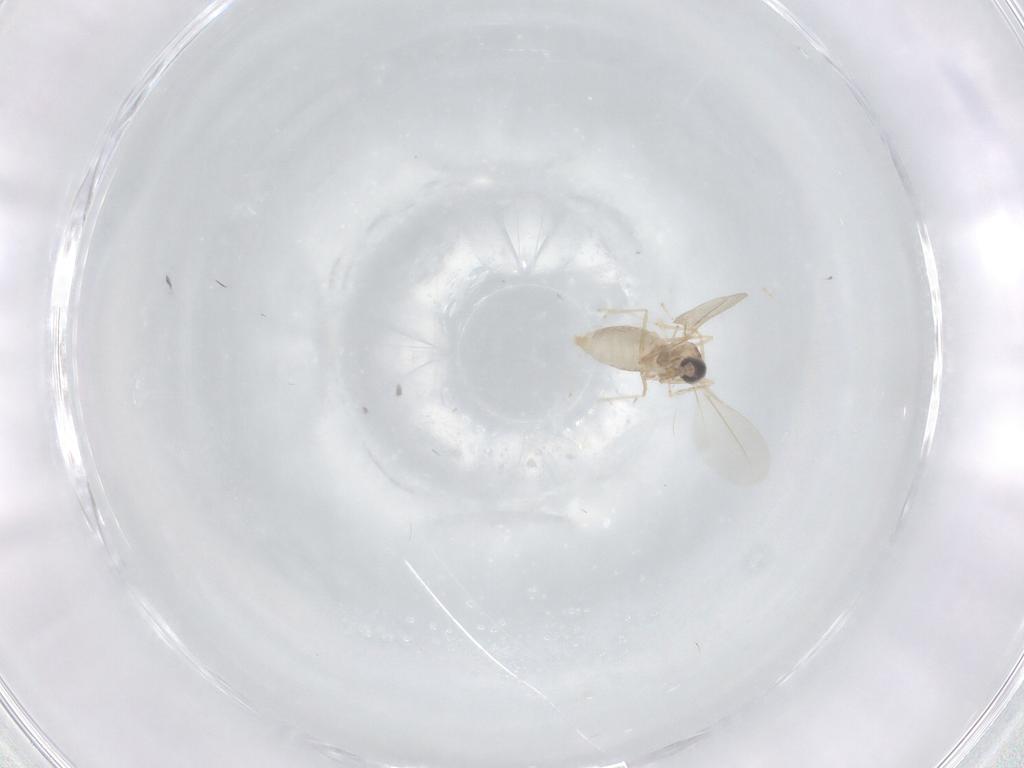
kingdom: Animalia
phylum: Arthropoda
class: Insecta
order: Diptera
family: Cecidomyiidae
